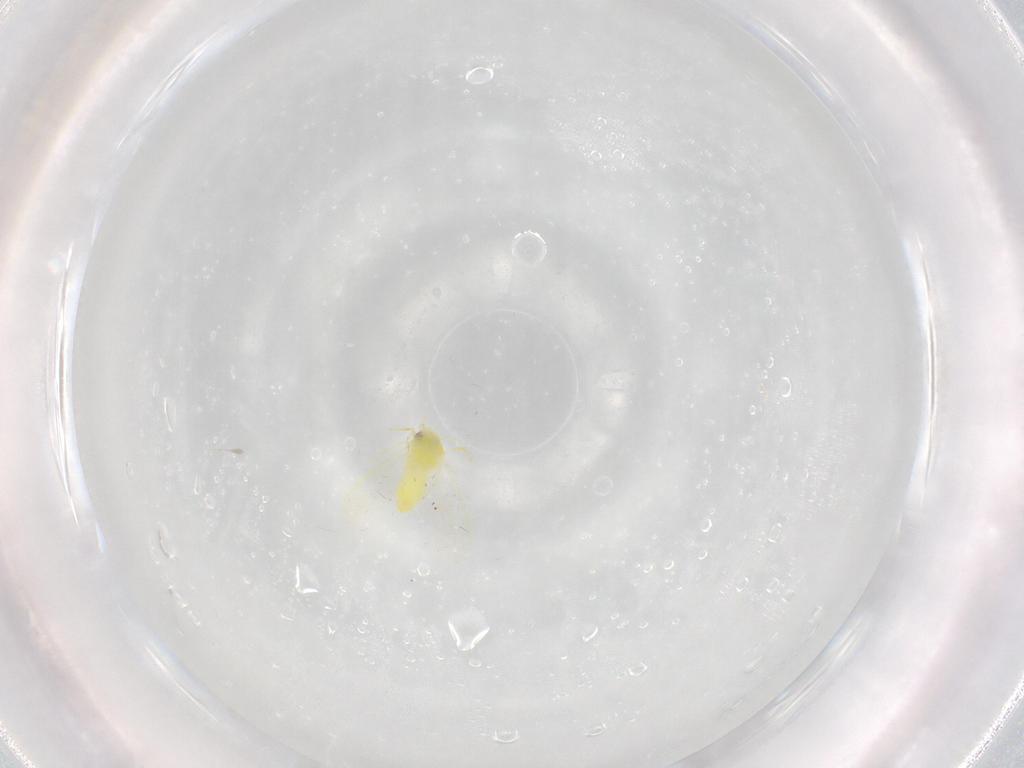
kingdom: Animalia
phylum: Arthropoda
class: Insecta
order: Hemiptera
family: Aleyrodidae
